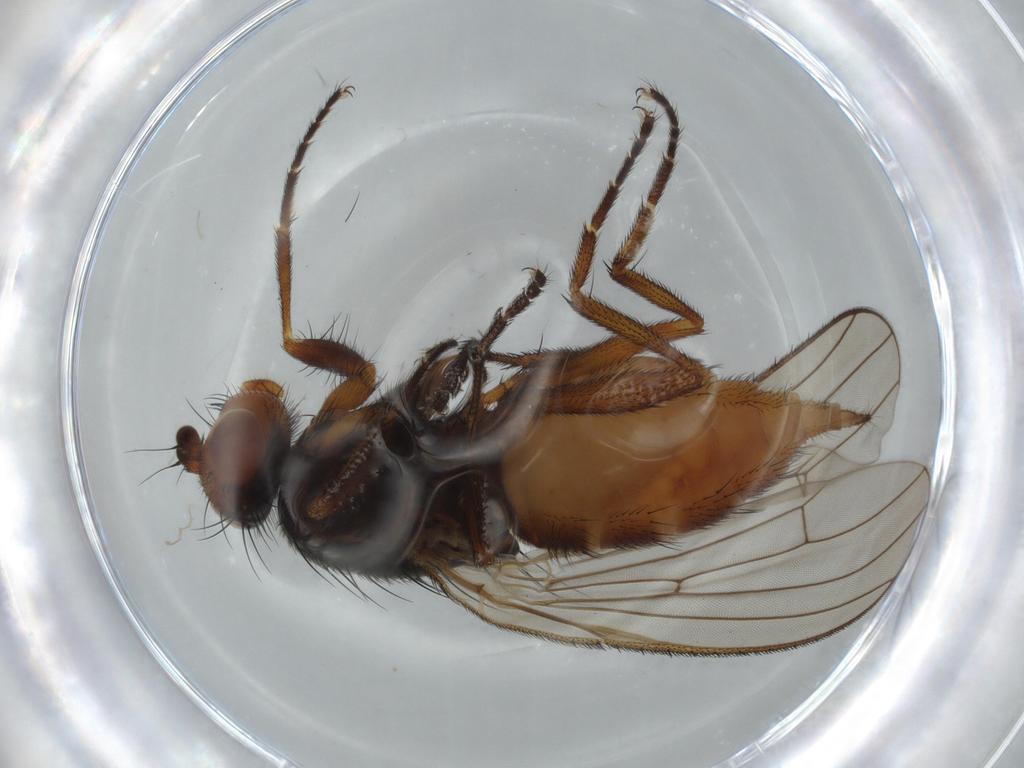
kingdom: Animalia
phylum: Arthropoda
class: Insecta
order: Diptera
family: Heleomyzidae
